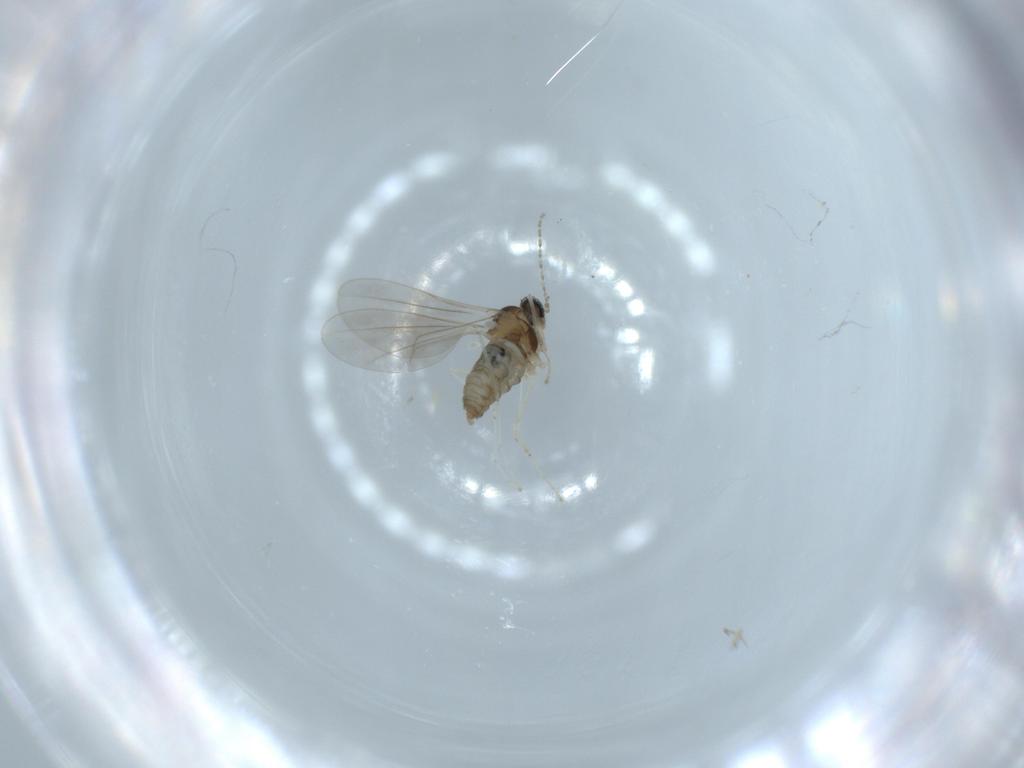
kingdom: Animalia
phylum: Arthropoda
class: Insecta
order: Diptera
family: Cecidomyiidae
